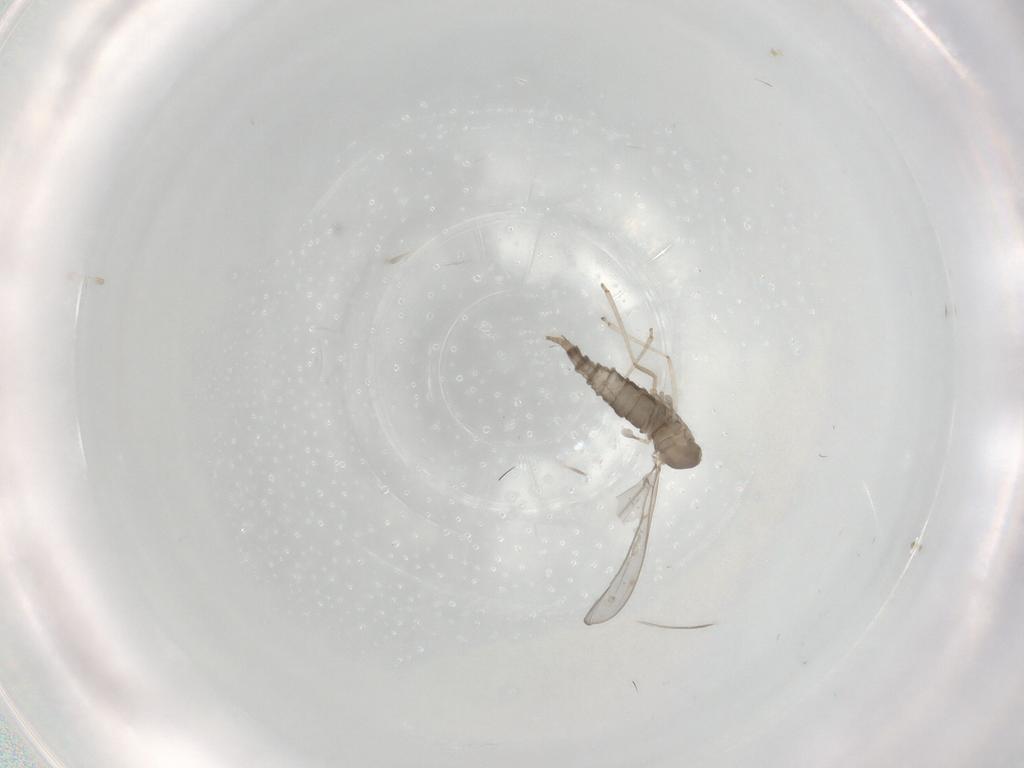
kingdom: Animalia
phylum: Arthropoda
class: Insecta
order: Diptera
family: Cecidomyiidae
